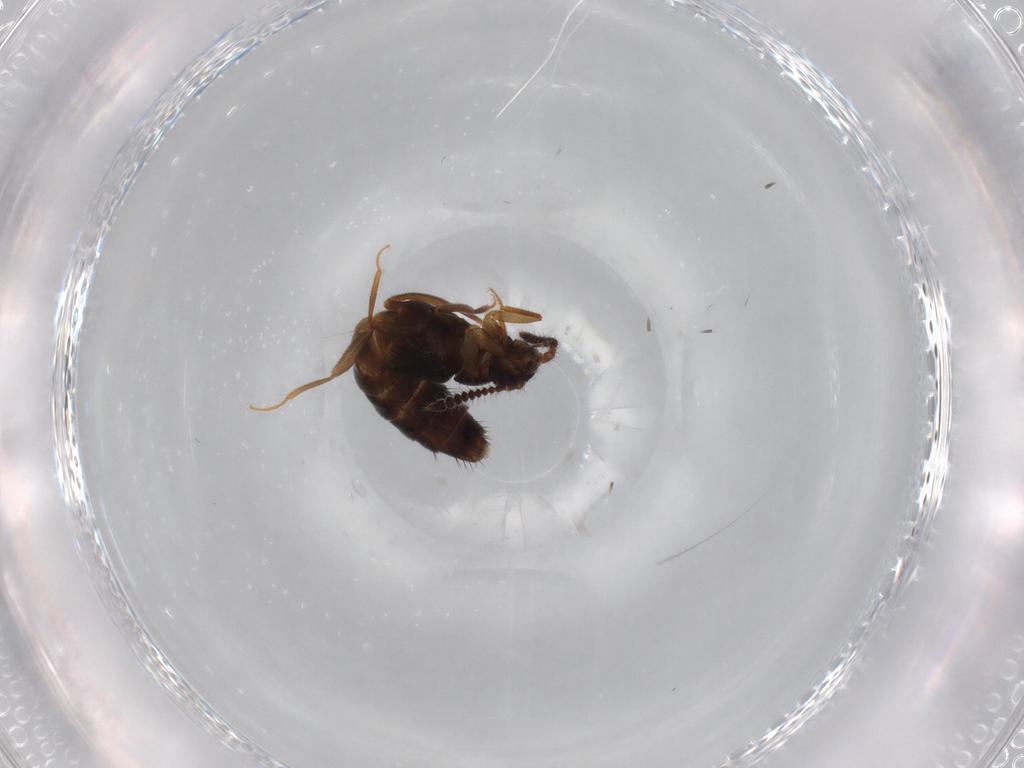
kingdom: Animalia
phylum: Arthropoda
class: Insecta
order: Coleoptera
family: Staphylinidae
